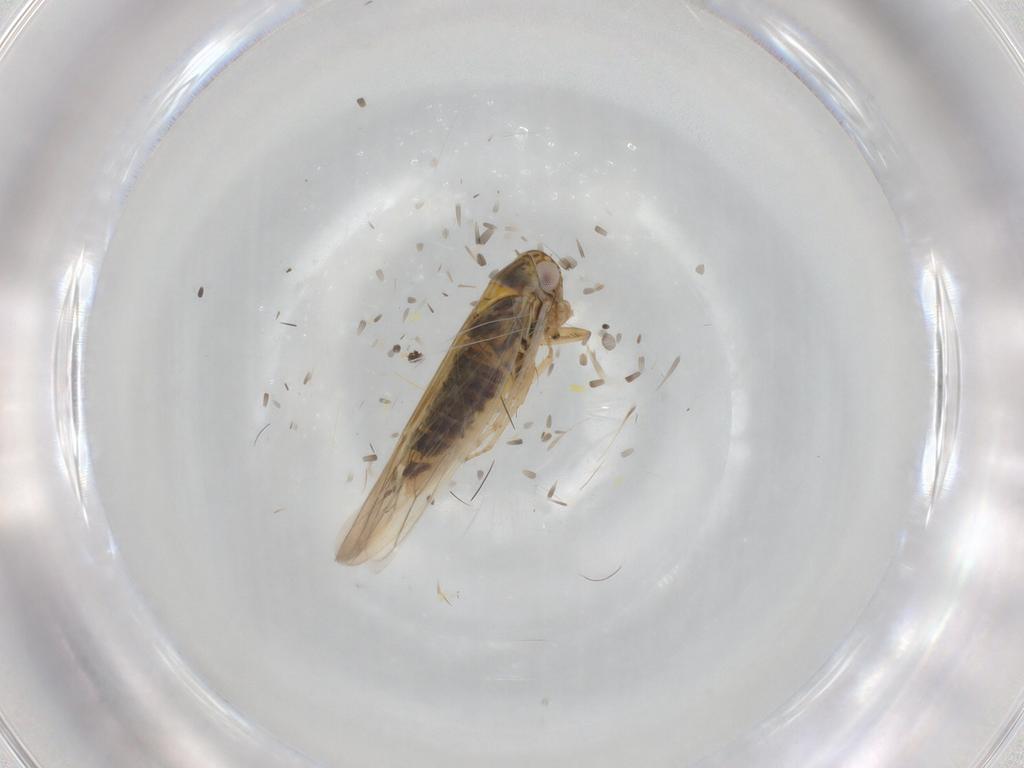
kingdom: Animalia
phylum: Arthropoda
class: Insecta
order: Hemiptera
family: Cicadellidae
